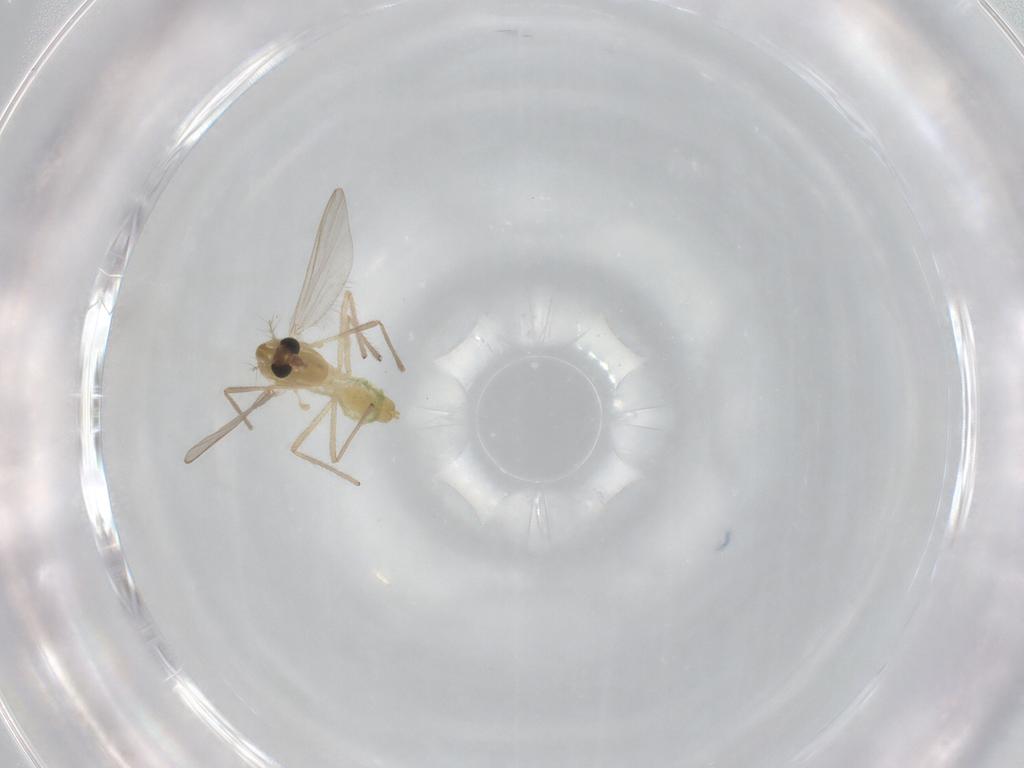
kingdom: Animalia
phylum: Arthropoda
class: Insecta
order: Diptera
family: Chironomidae
